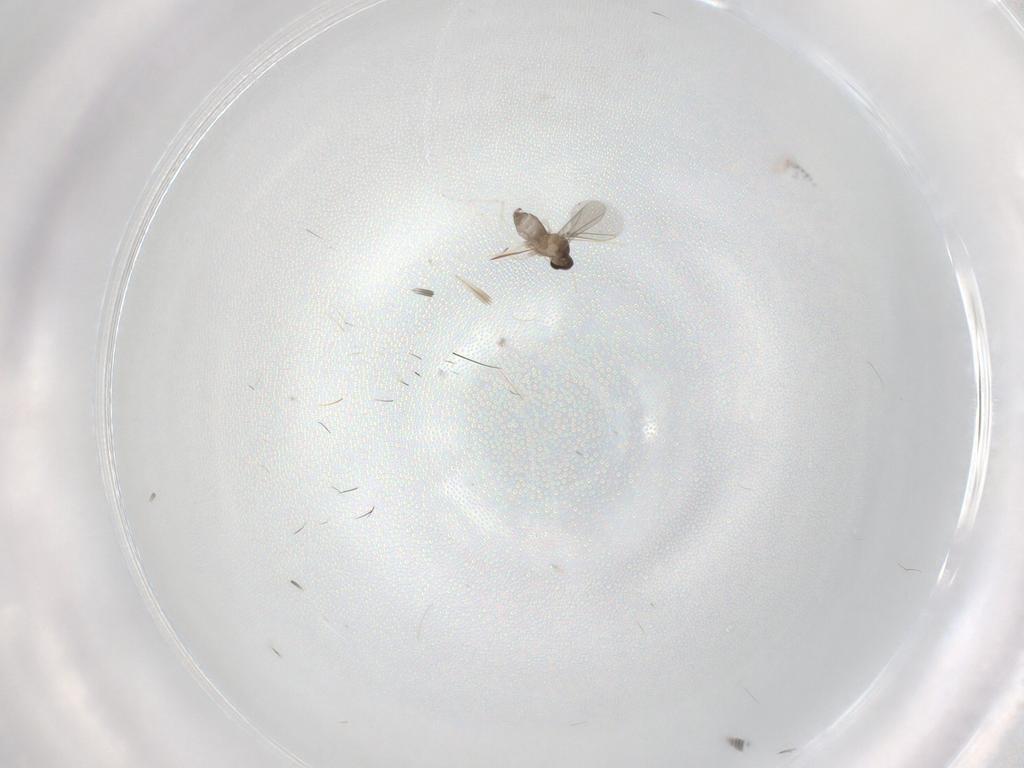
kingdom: Animalia
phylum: Arthropoda
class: Insecta
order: Diptera
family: Cecidomyiidae
